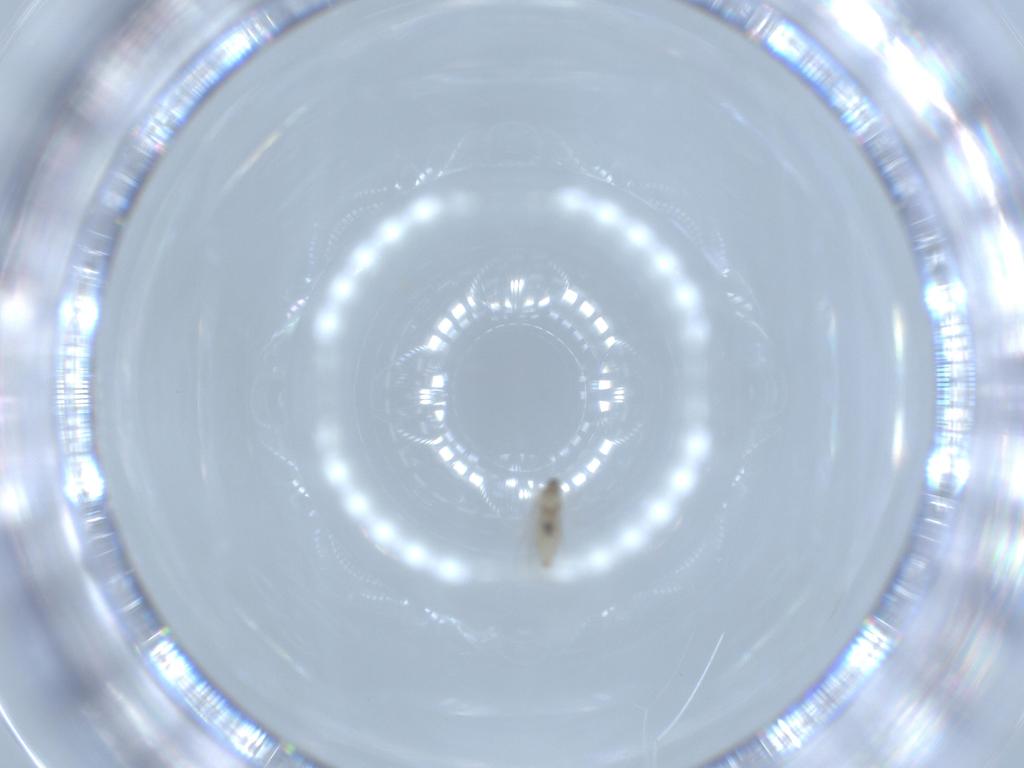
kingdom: Animalia
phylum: Arthropoda
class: Insecta
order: Diptera
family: Cecidomyiidae
